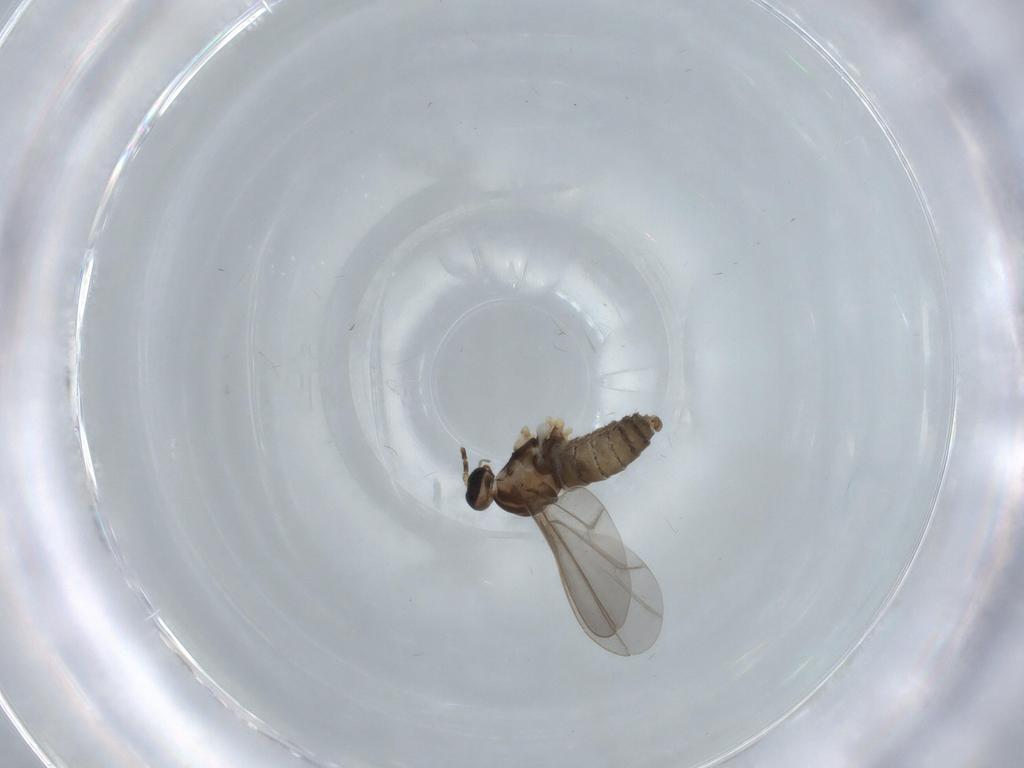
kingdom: Animalia
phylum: Arthropoda
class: Insecta
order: Diptera
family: Cecidomyiidae
